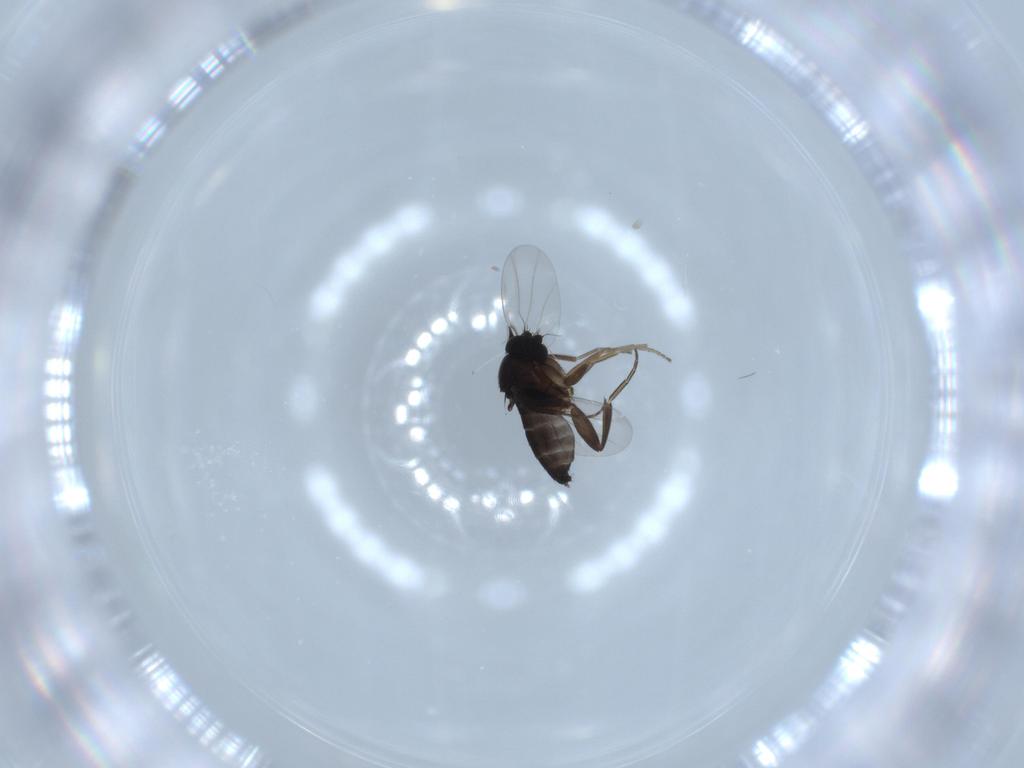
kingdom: Animalia
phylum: Arthropoda
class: Insecta
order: Diptera
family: Phoridae
